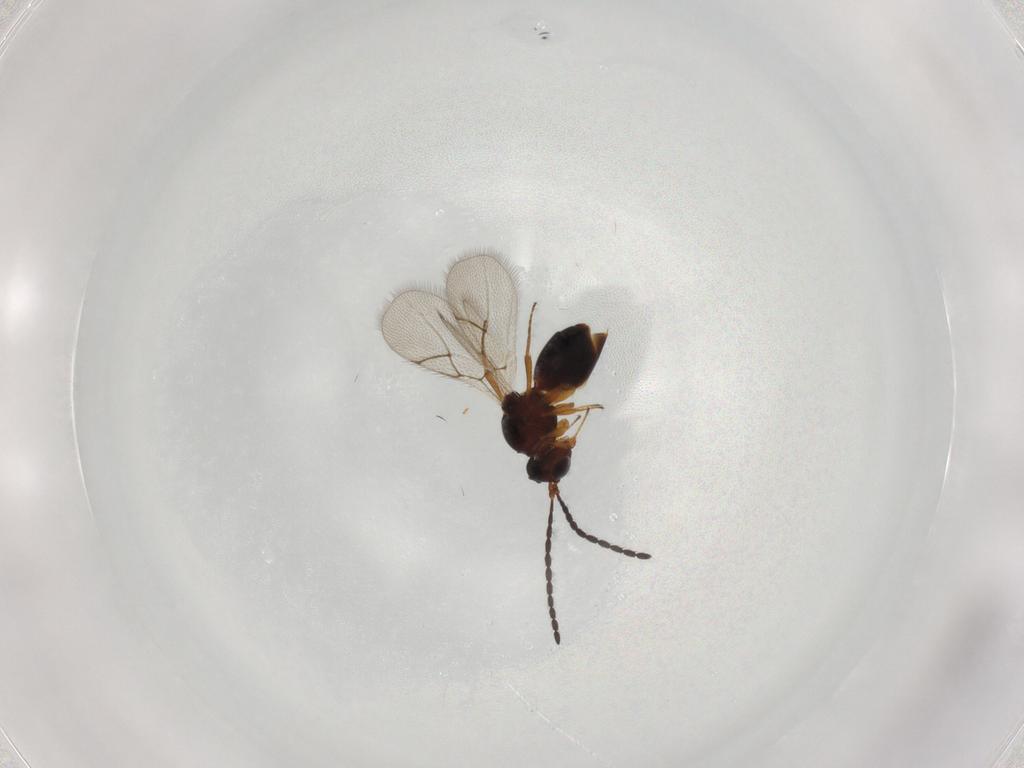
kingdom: Animalia
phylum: Arthropoda
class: Insecta
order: Hymenoptera
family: Figitidae
